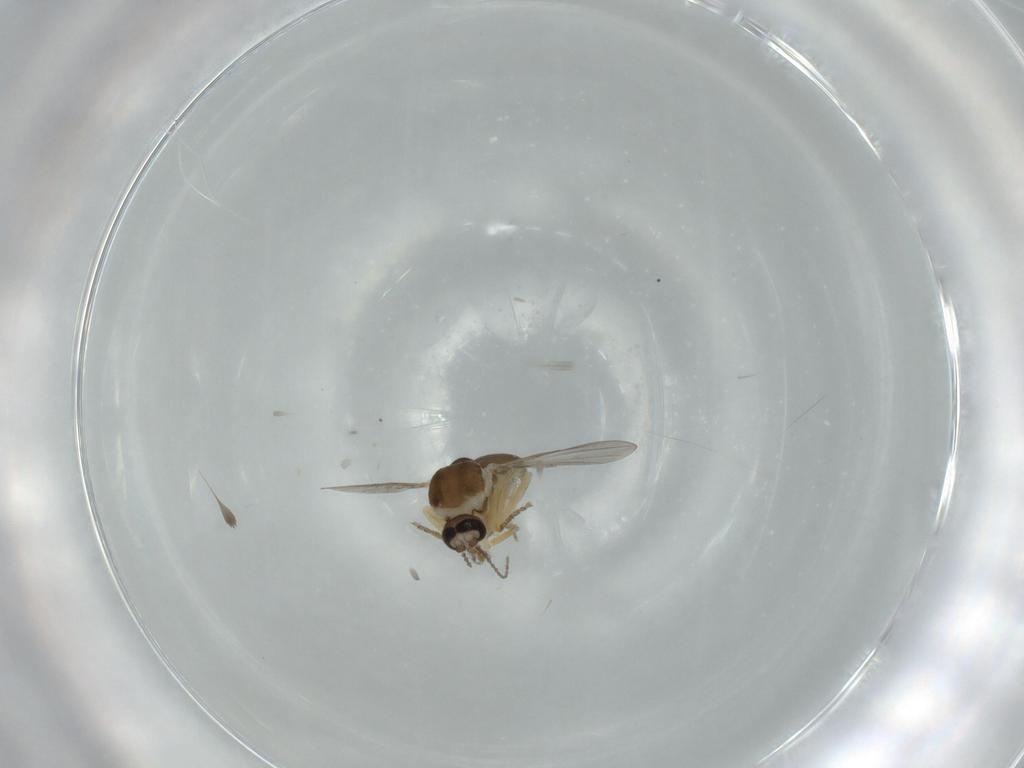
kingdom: Animalia
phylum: Arthropoda
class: Insecta
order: Diptera
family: Ceratopogonidae
